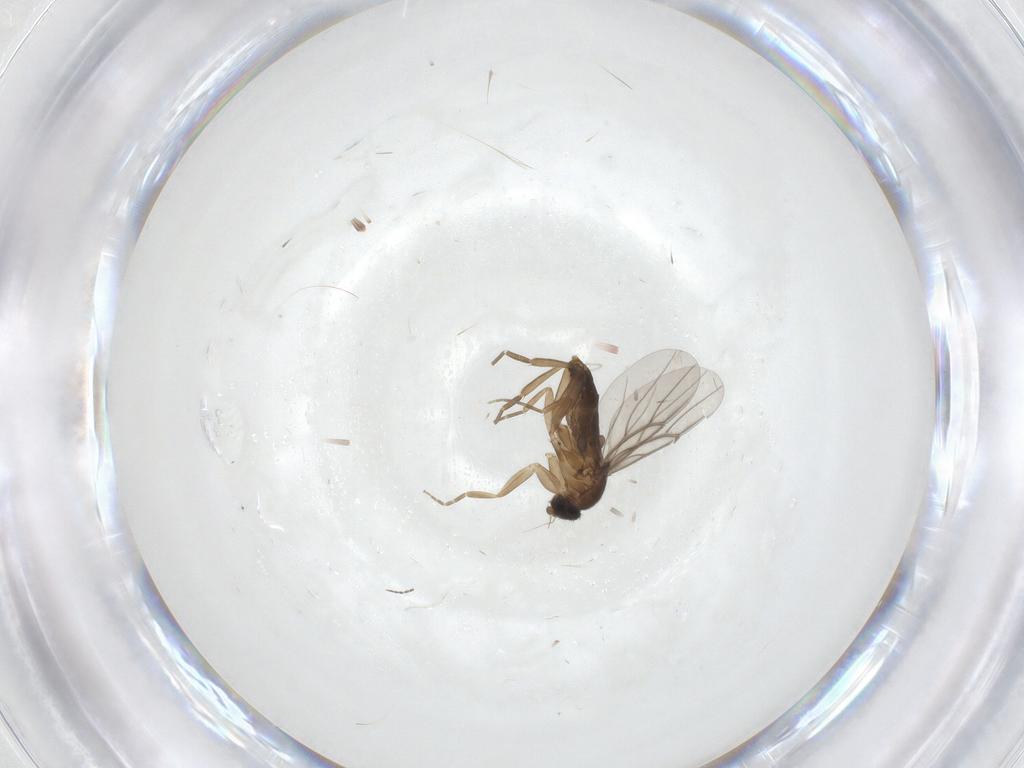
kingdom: Animalia
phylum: Arthropoda
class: Insecta
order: Diptera
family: Phoridae
